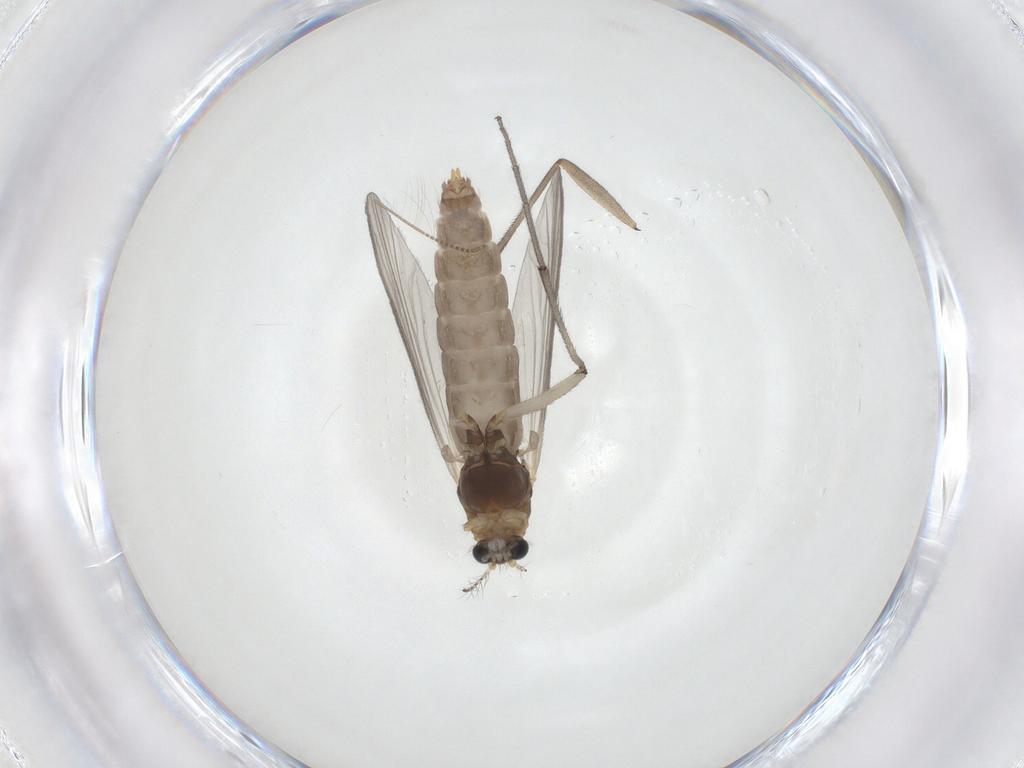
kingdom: Animalia
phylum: Arthropoda
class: Insecta
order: Diptera
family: Chironomidae
